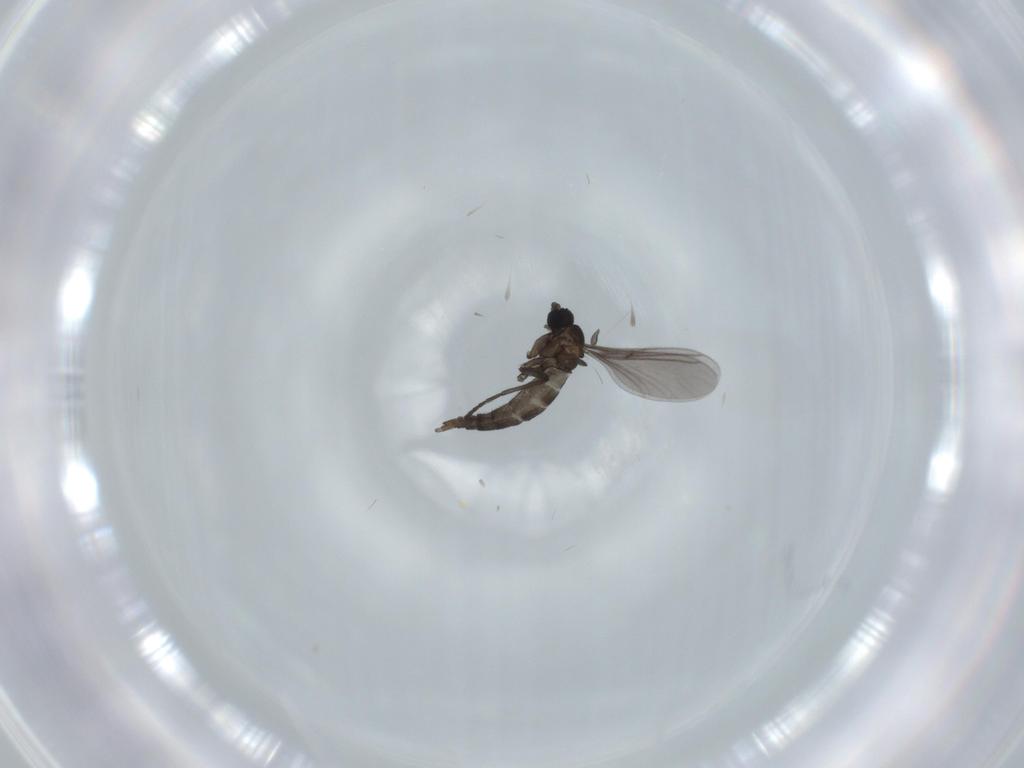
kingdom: Animalia
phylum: Arthropoda
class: Insecta
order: Diptera
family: Sciaridae
